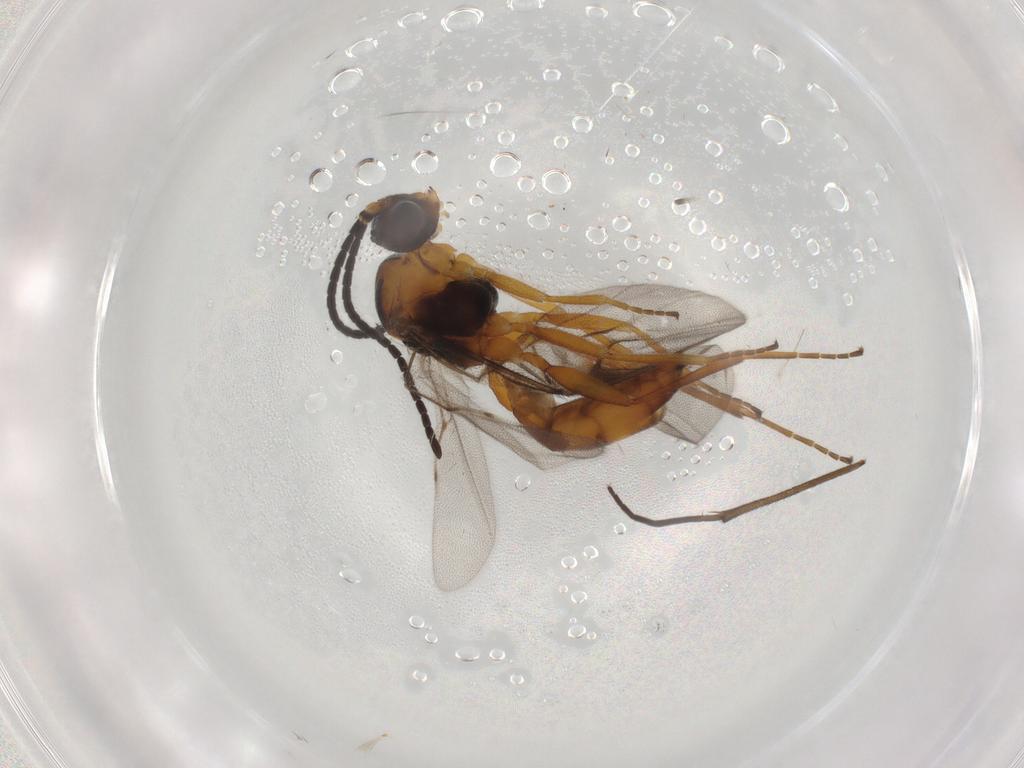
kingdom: Animalia
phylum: Arthropoda
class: Insecta
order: Hymenoptera
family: Braconidae
